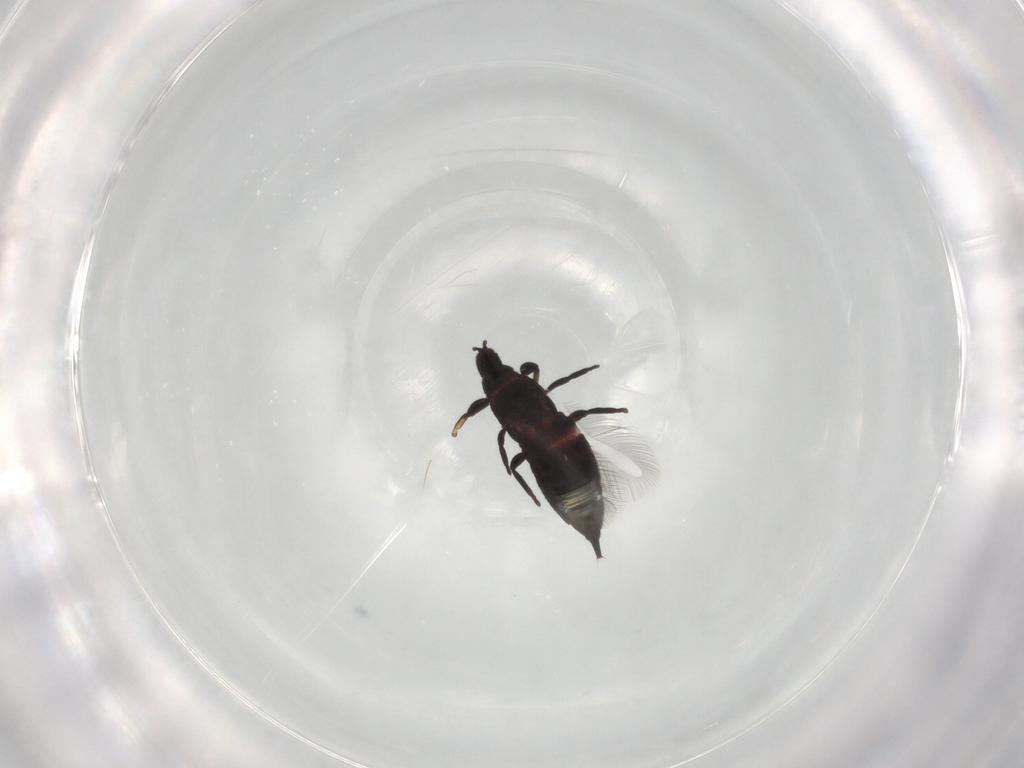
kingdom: Animalia
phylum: Arthropoda
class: Insecta
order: Thysanoptera
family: Phlaeothripidae
